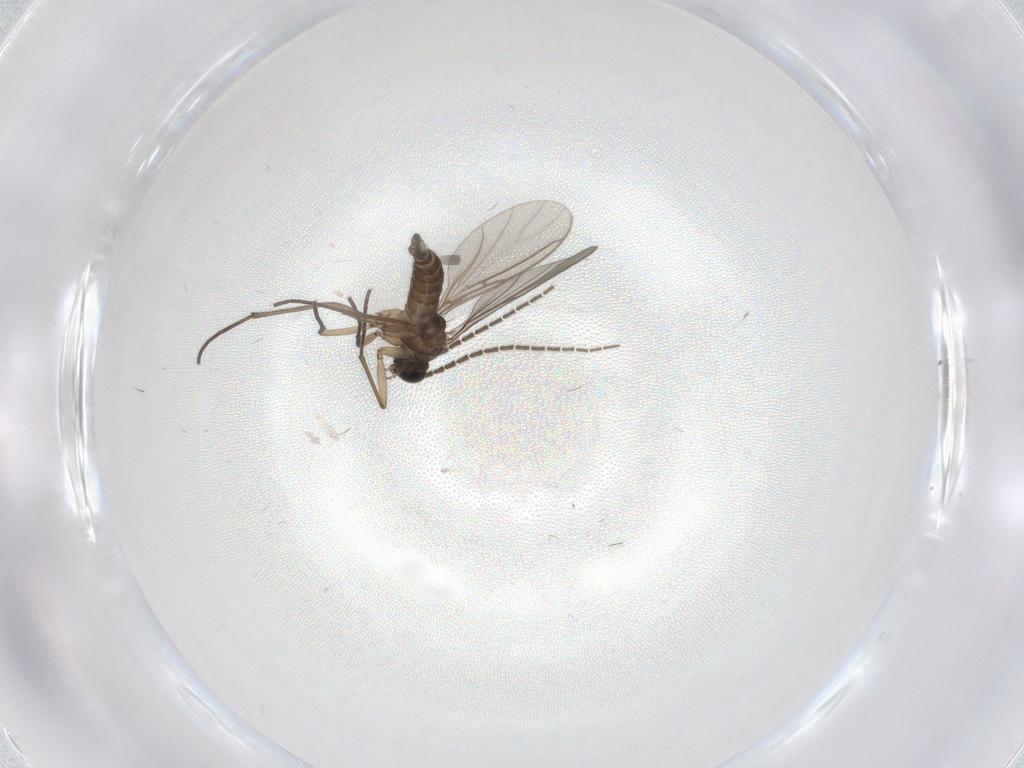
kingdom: Animalia
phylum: Arthropoda
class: Insecta
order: Diptera
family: Sciaridae
